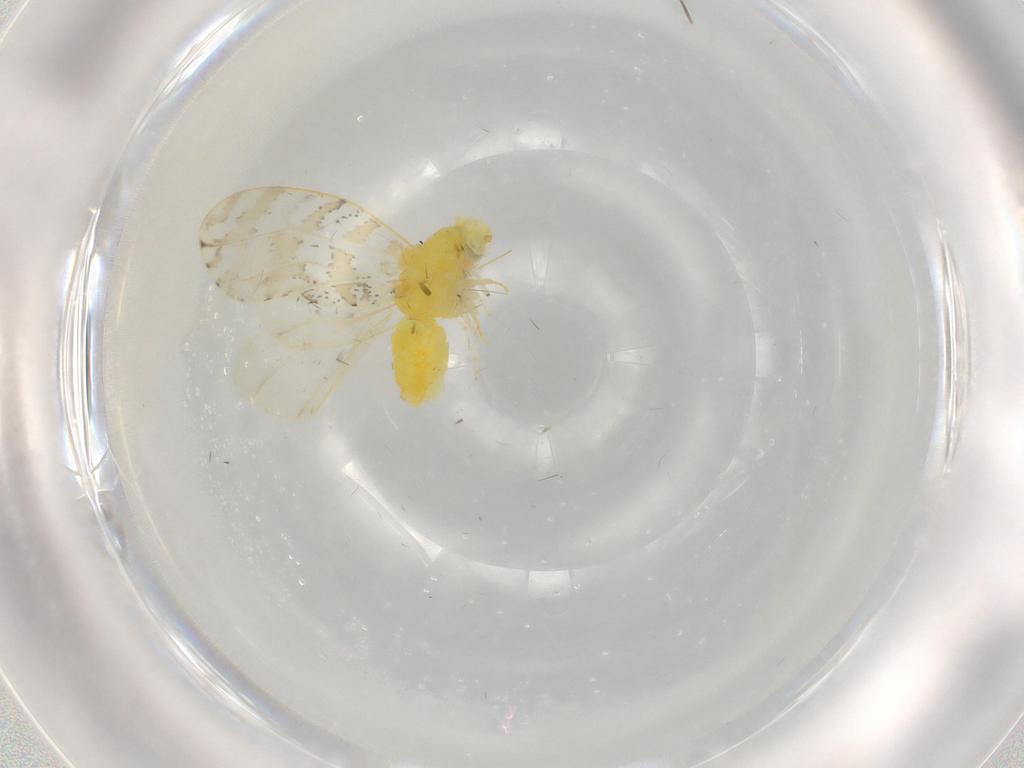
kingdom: Animalia
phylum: Arthropoda
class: Insecta
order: Hemiptera
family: Aleyrodidae
